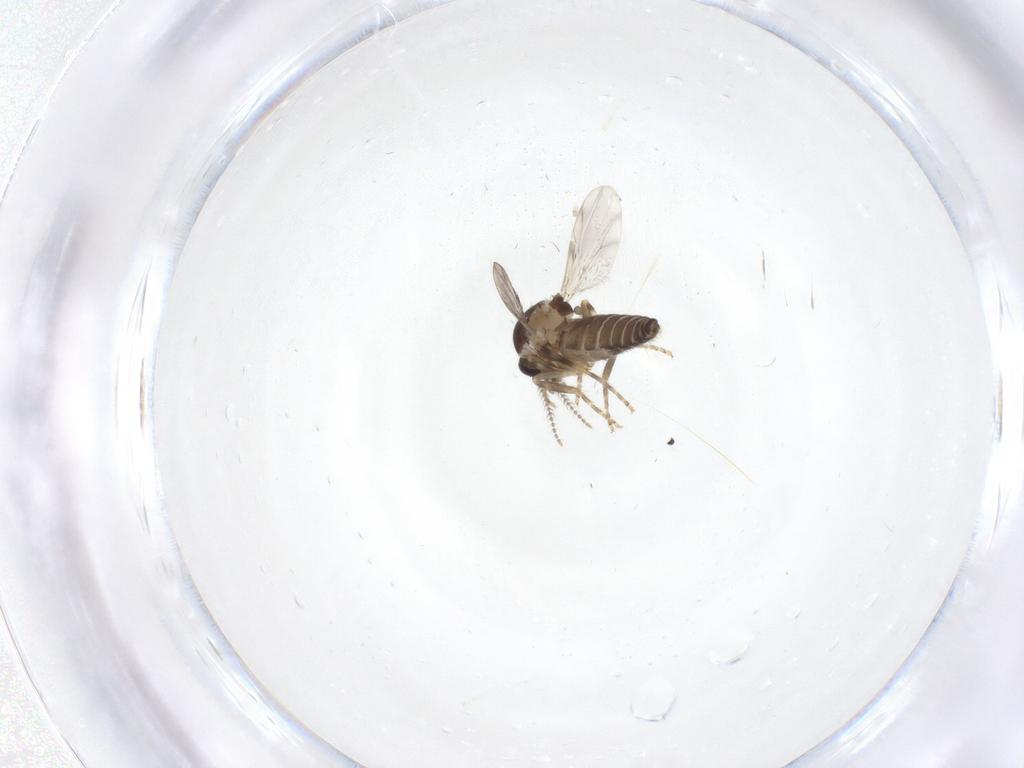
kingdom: Animalia
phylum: Arthropoda
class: Insecta
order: Diptera
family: Ceratopogonidae
